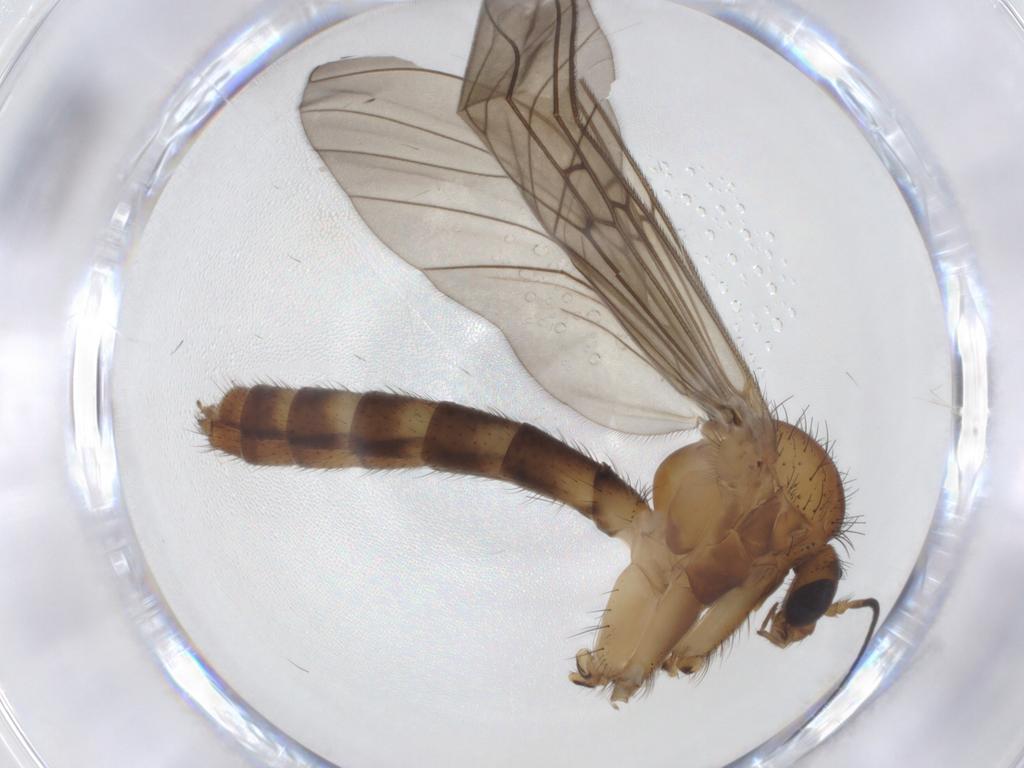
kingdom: Animalia
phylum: Arthropoda
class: Insecta
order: Diptera
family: Mycetophilidae
